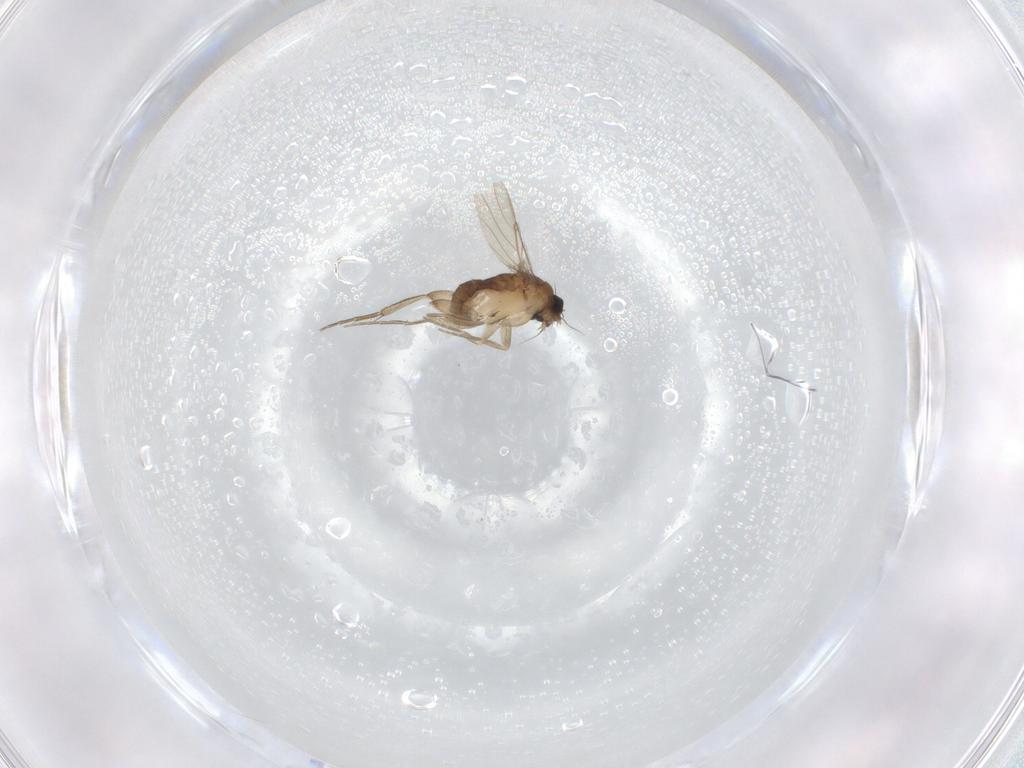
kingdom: Animalia
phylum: Arthropoda
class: Insecta
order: Diptera
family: Phoridae
